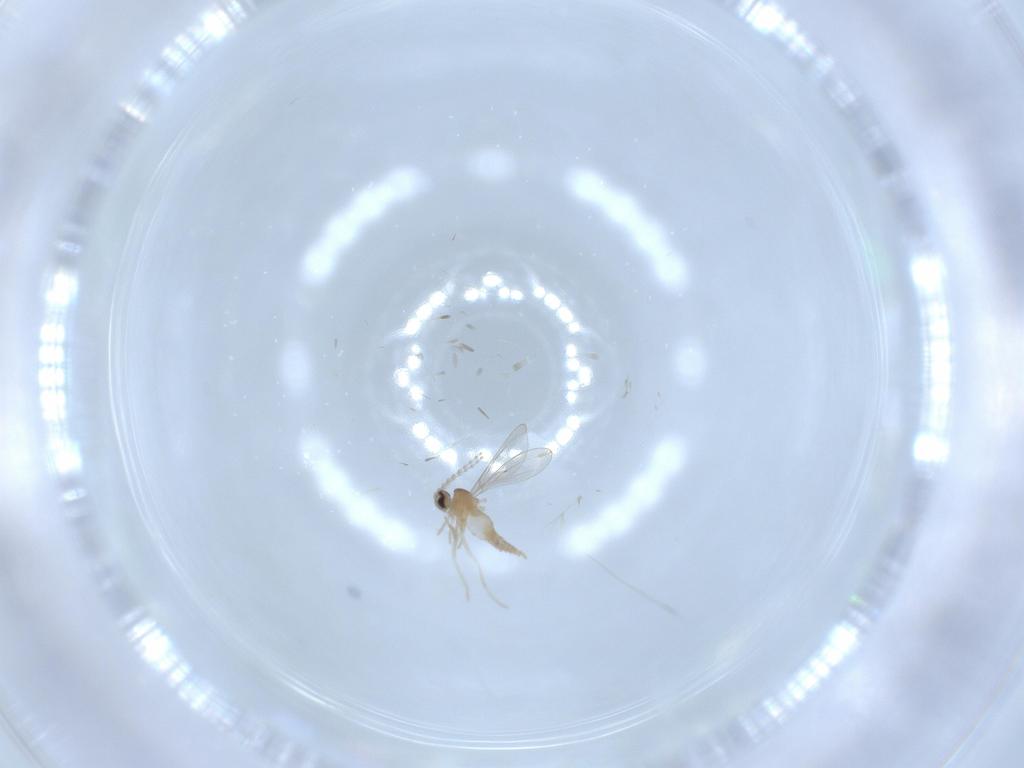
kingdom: Animalia
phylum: Arthropoda
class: Insecta
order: Diptera
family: Cecidomyiidae
